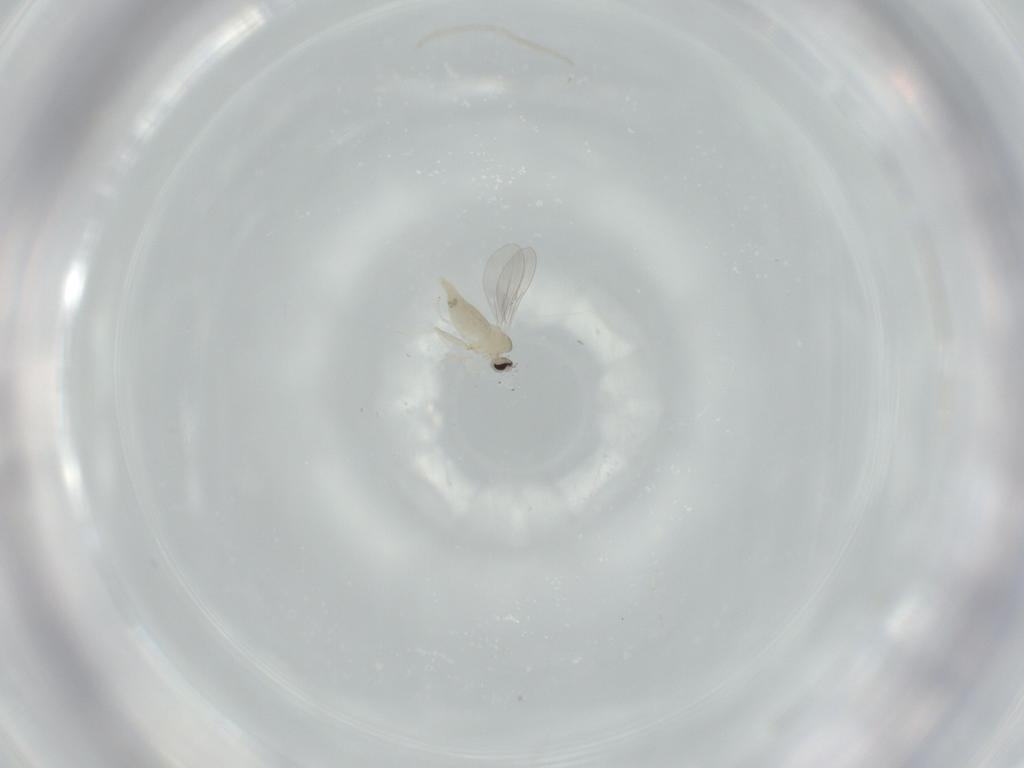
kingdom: Animalia
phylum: Arthropoda
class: Insecta
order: Diptera
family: Cecidomyiidae
